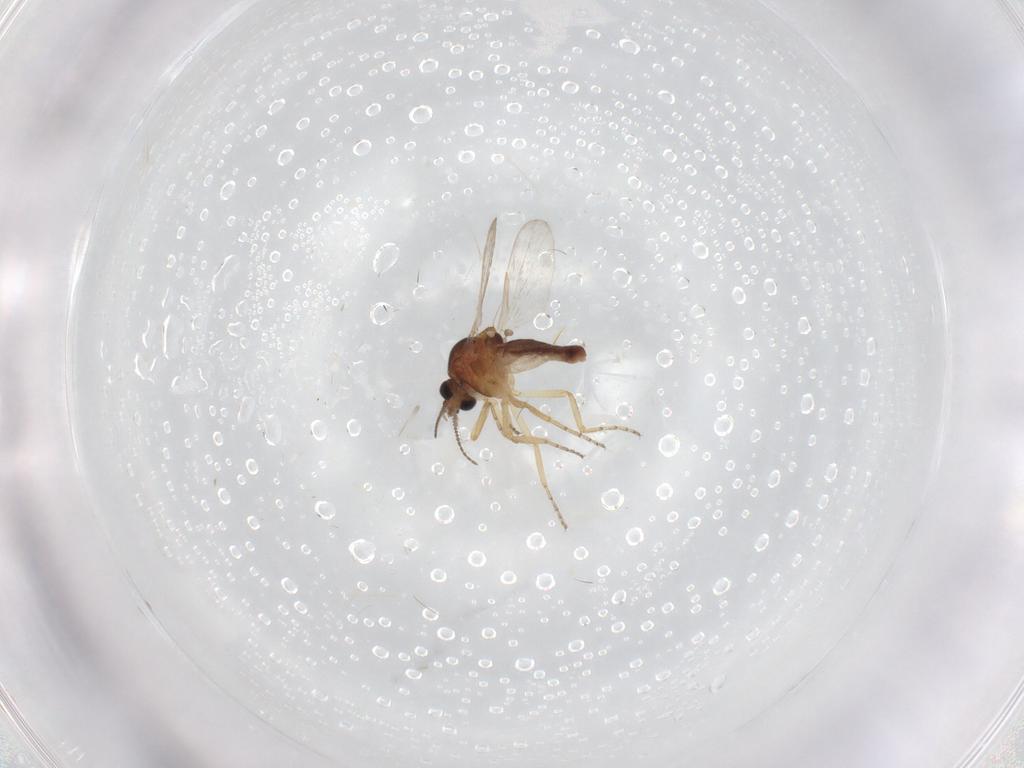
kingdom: Animalia
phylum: Arthropoda
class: Insecta
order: Diptera
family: Ceratopogonidae
